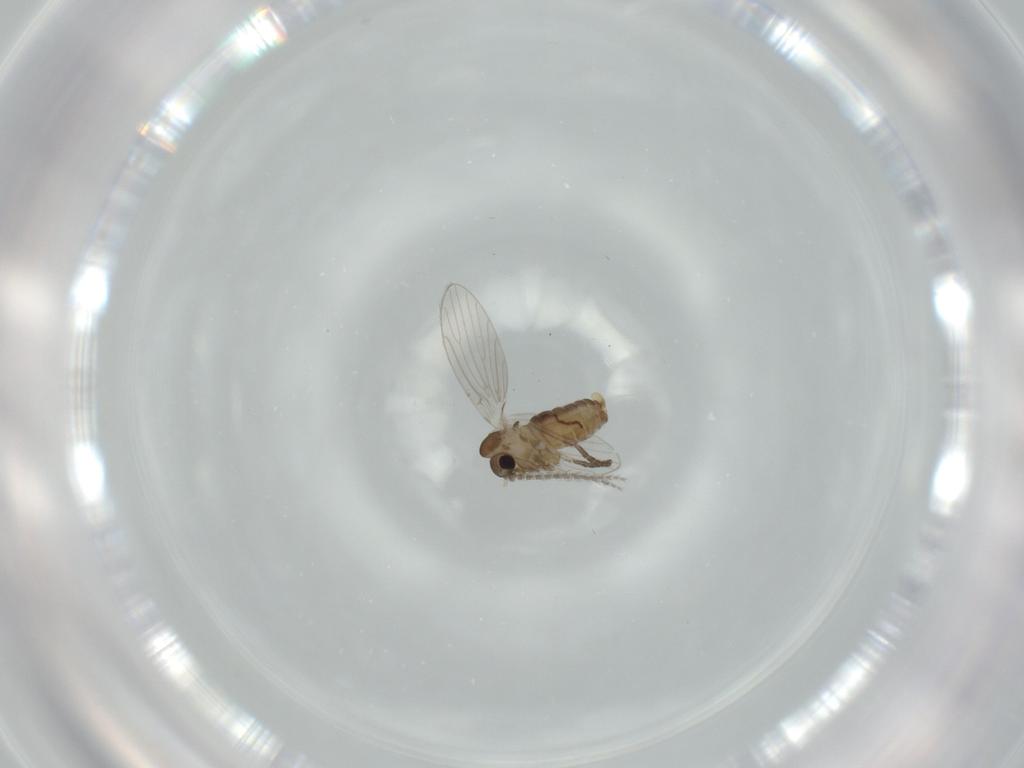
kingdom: Animalia
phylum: Arthropoda
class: Insecta
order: Diptera
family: Psychodidae
